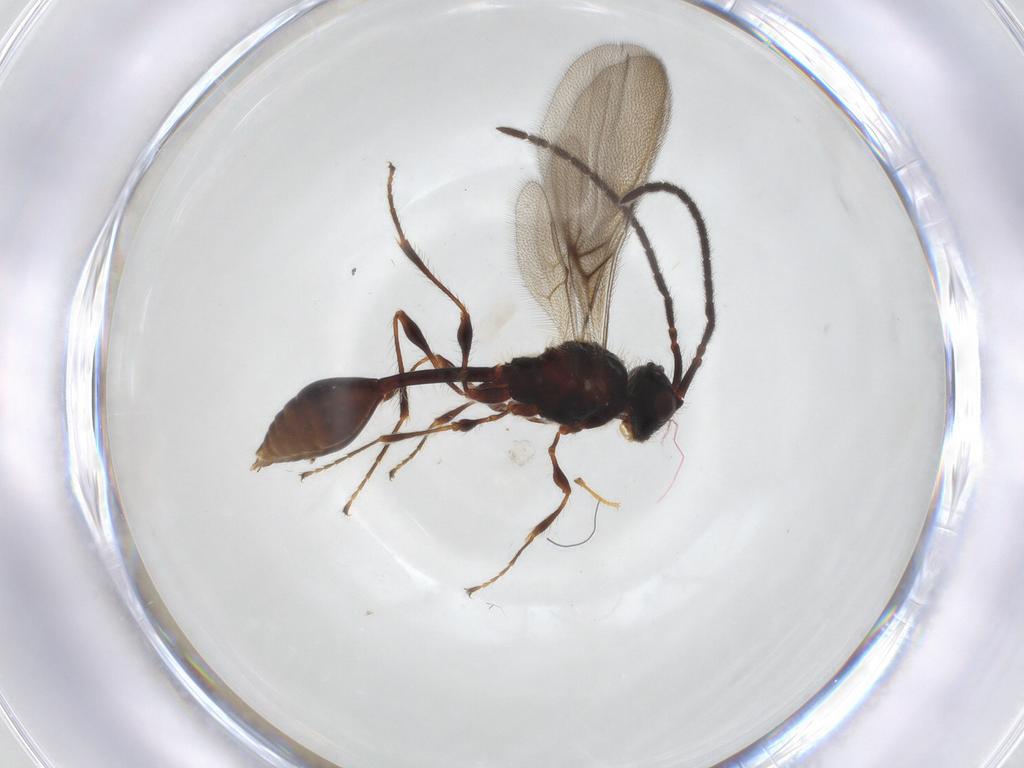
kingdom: Animalia
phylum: Arthropoda
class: Insecta
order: Hymenoptera
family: Diapriidae
